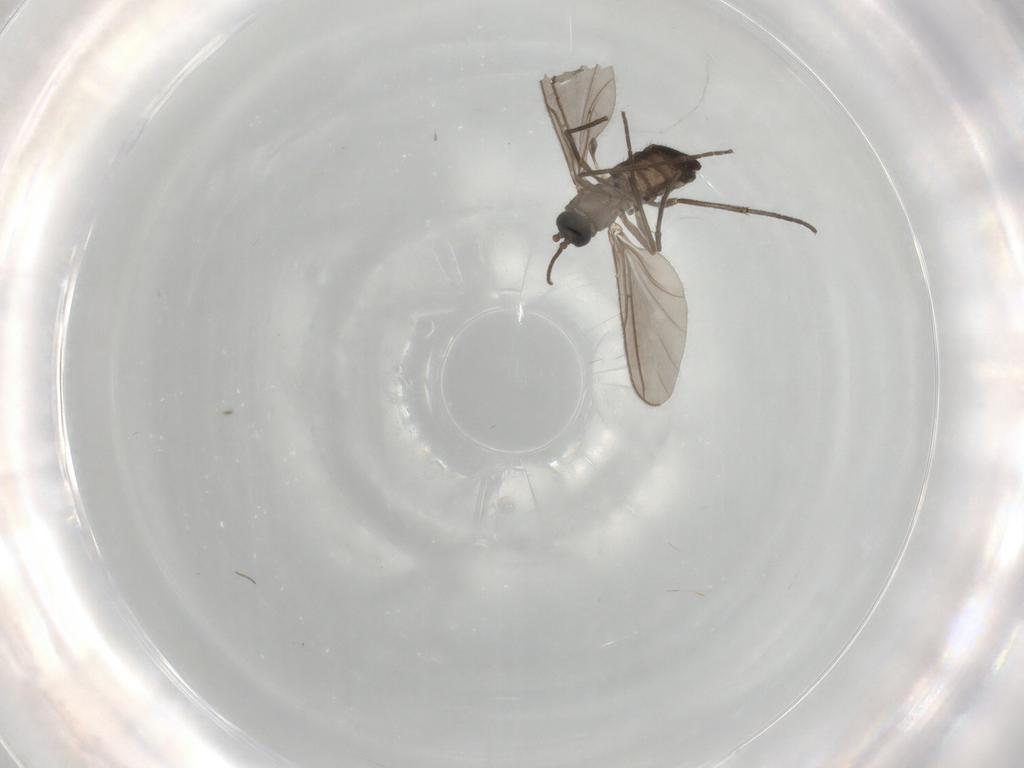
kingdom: Animalia
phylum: Arthropoda
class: Insecta
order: Diptera
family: Sciaridae
